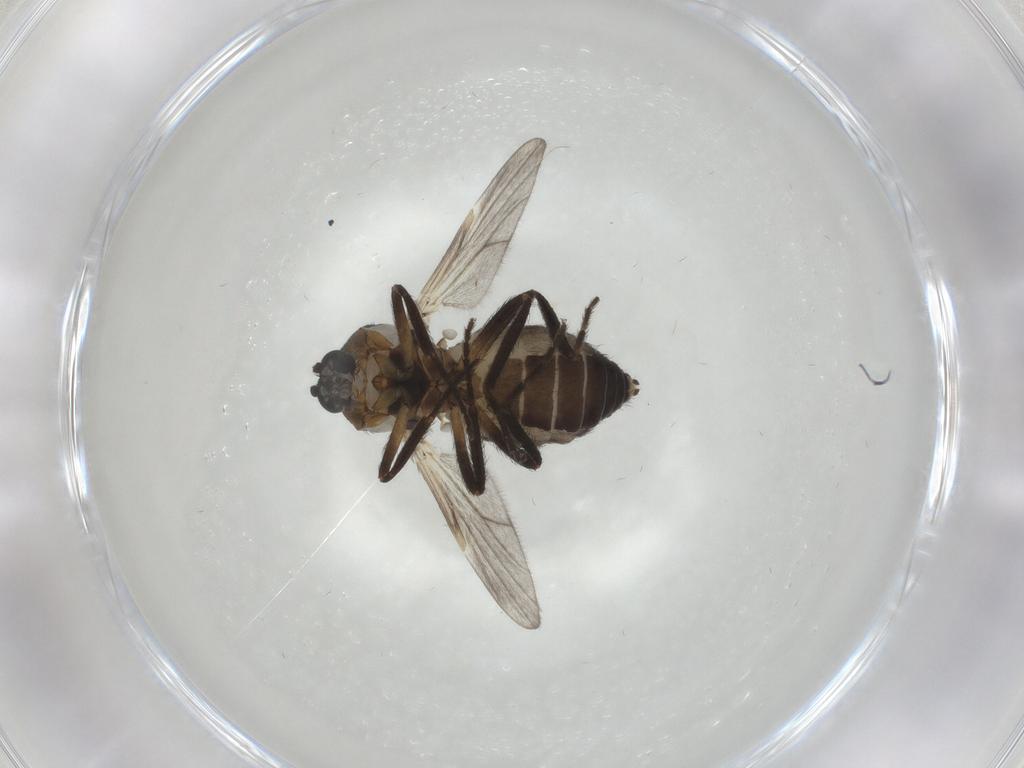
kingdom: Animalia
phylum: Arthropoda
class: Insecta
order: Diptera
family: Ceratopogonidae
